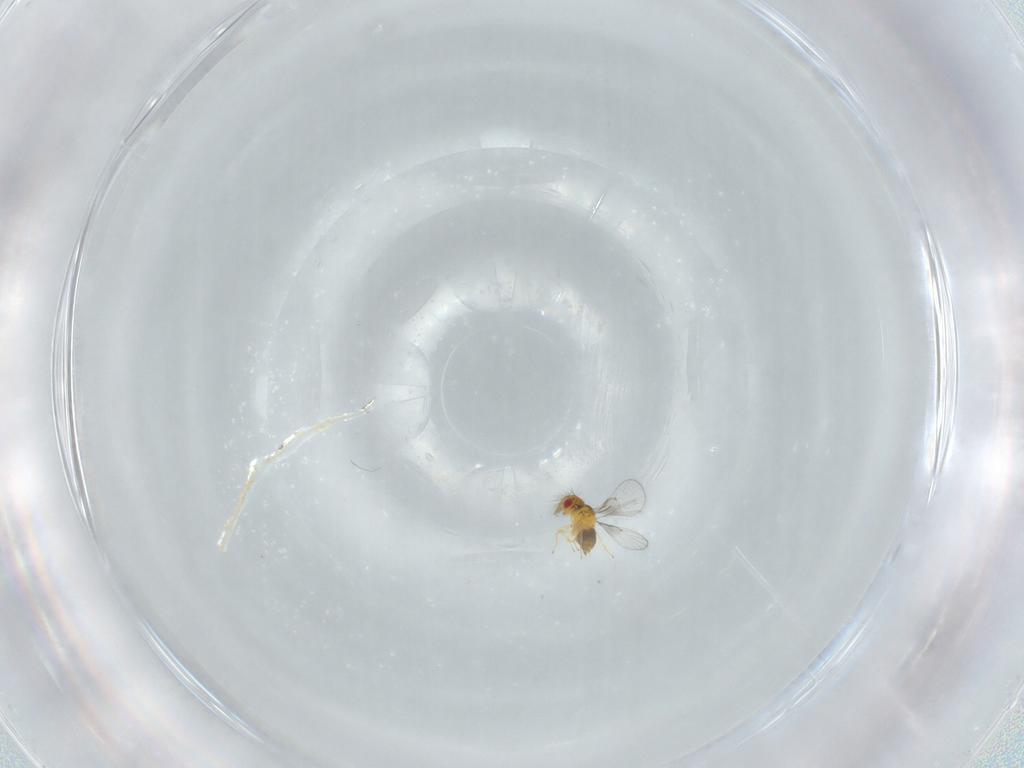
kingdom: Animalia
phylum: Arthropoda
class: Insecta
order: Hymenoptera
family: Trichogrammatidae
